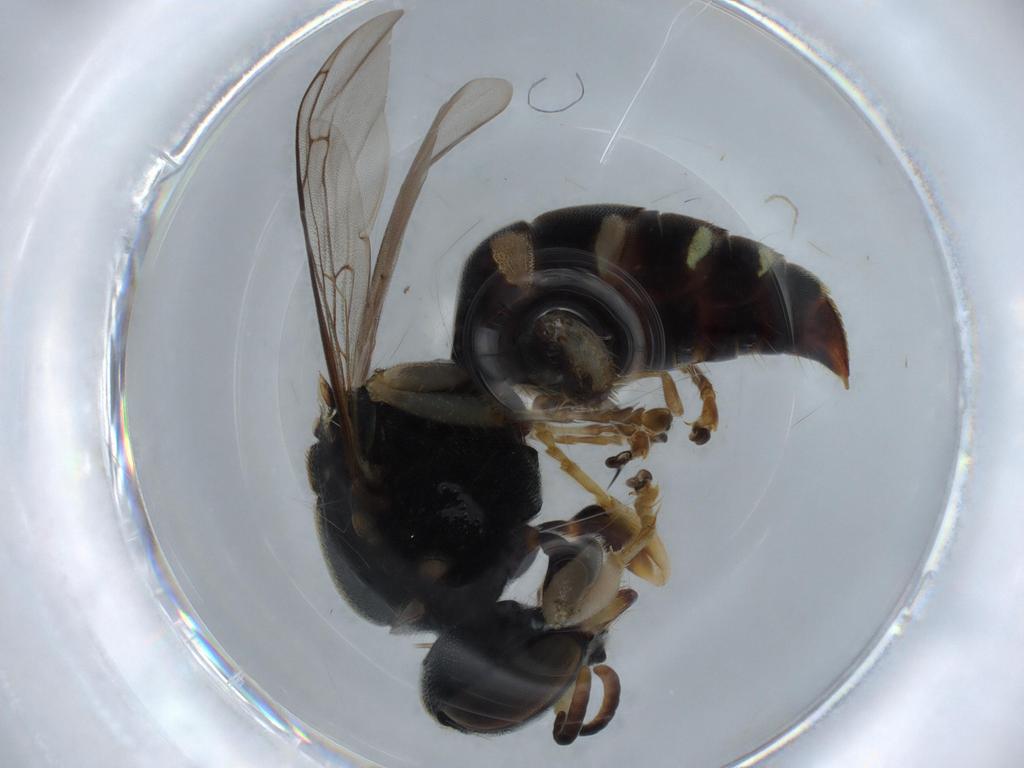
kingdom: Animalia
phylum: Arthropoda
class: Insecta
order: Hymenoptera
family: Crabronidae
